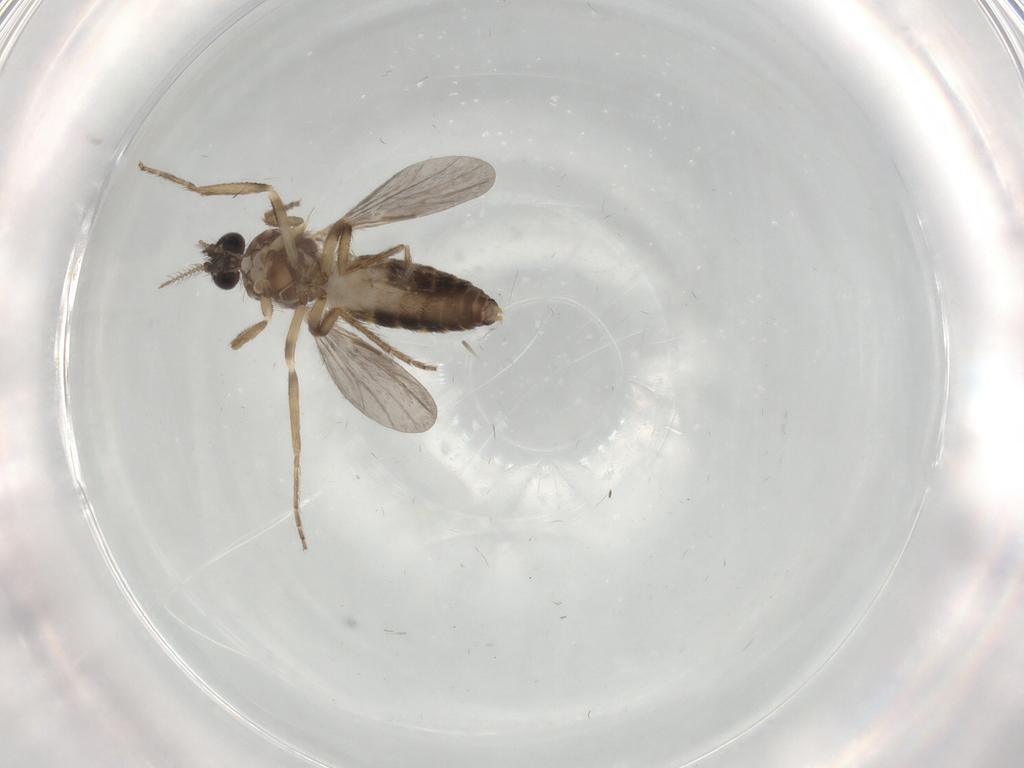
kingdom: Animalia
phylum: Arthropoda
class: Insecta
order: Diptera
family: Ceratopogonidae
